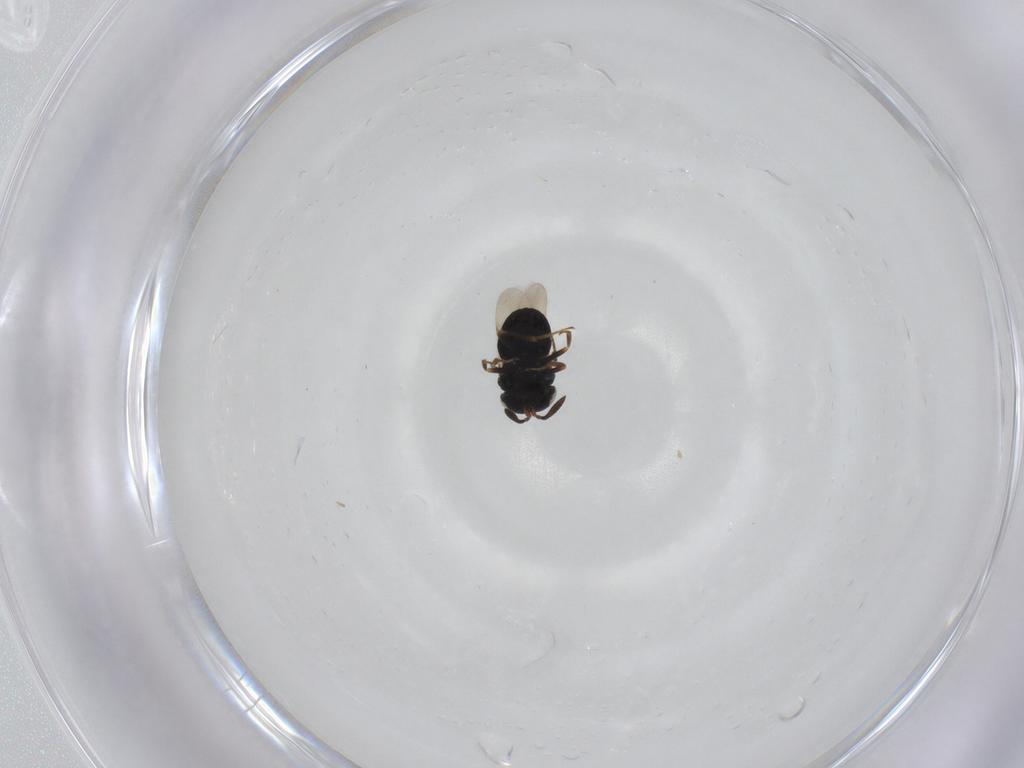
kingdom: Animalia
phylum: Arthropoda
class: Insecta
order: Hymenoptera
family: Scelionidae
